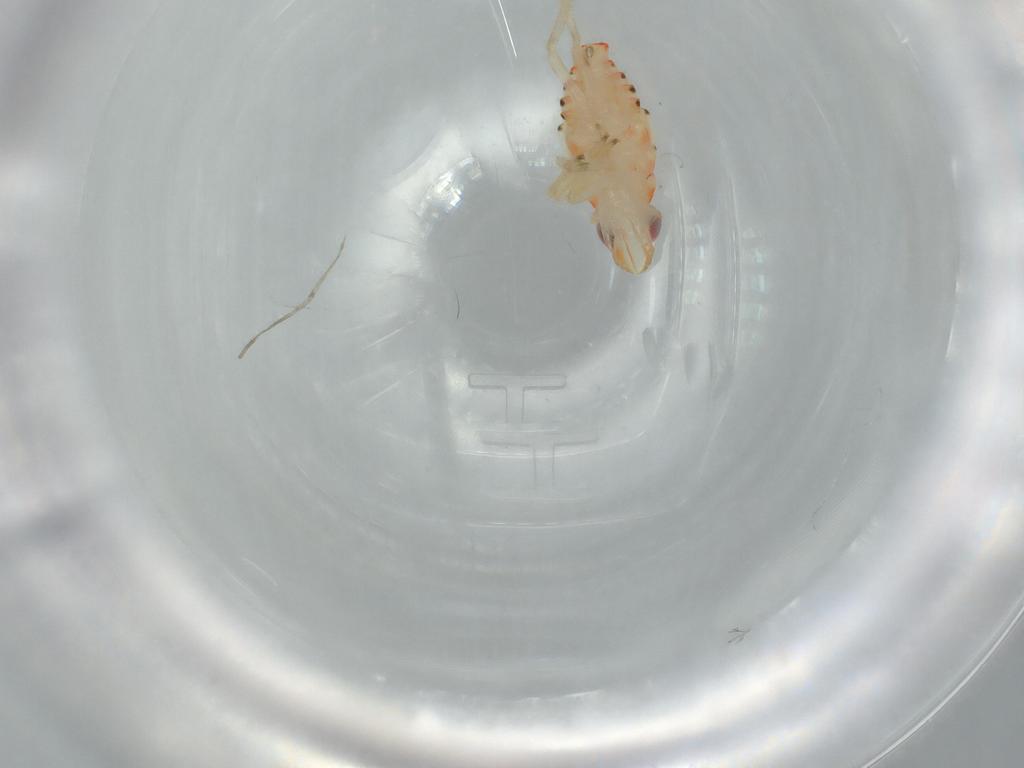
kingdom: Animalia
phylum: Arthropoda
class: Insecta
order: Hemiptera
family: Tropiduchidae
